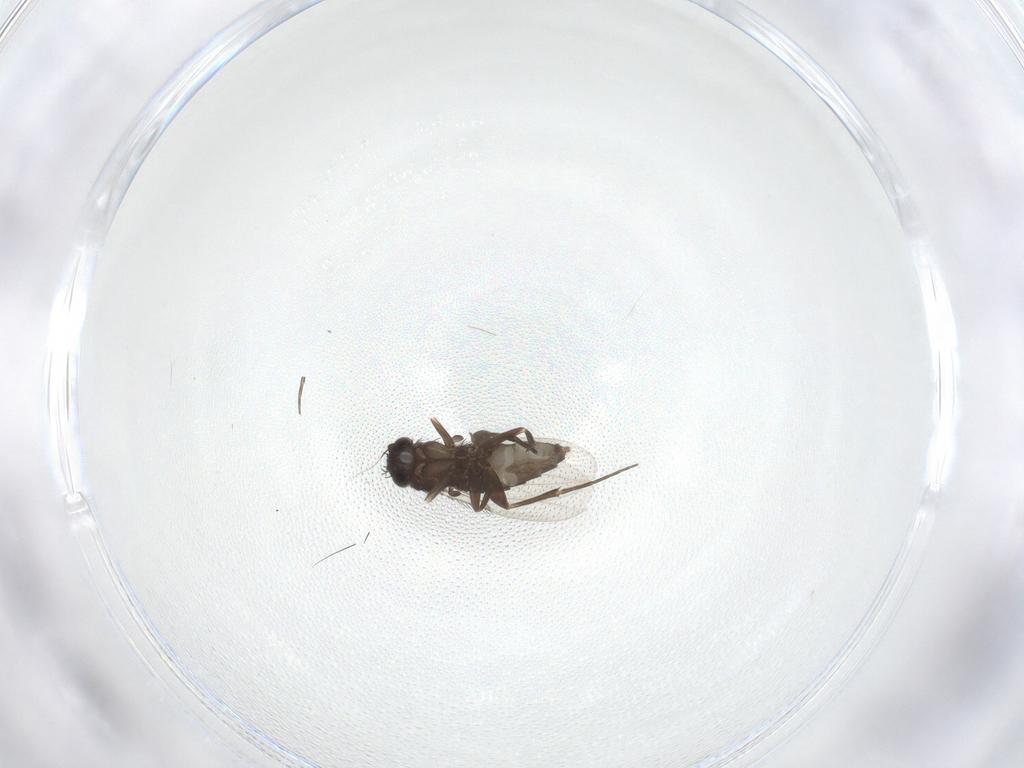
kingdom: Animalia
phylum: Arthropoda
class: Insecta
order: Diptera
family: Phoridae
